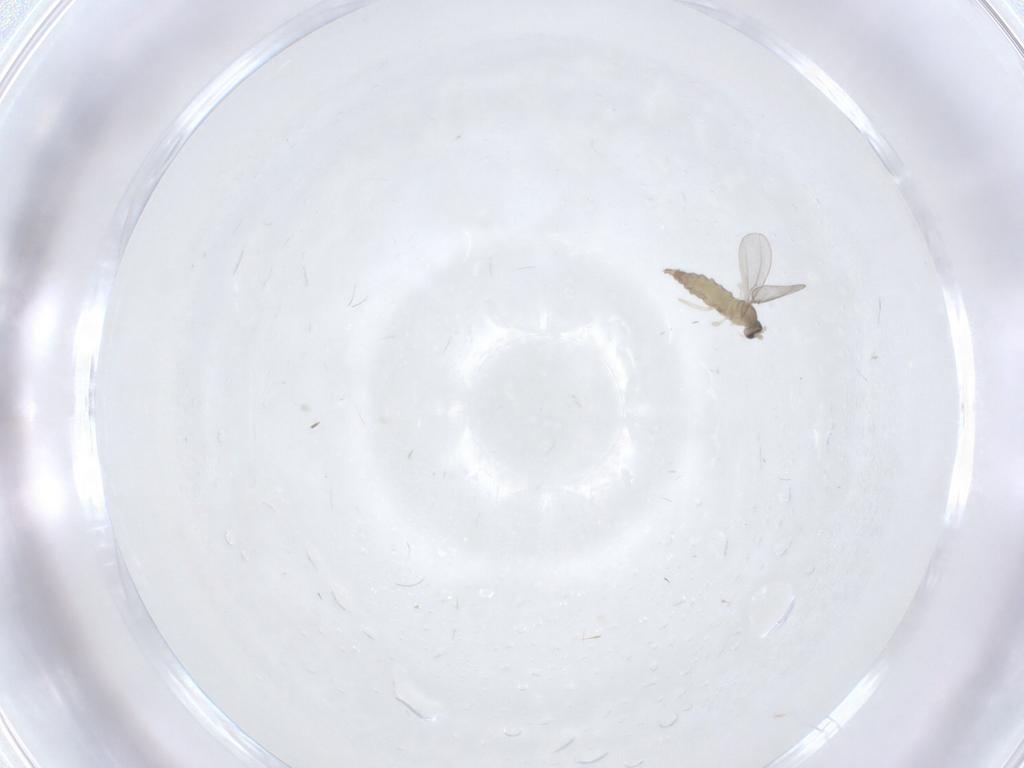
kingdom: Animalia
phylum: Arthropoda
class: Insecta
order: Diptera
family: Cecidomyiidae
